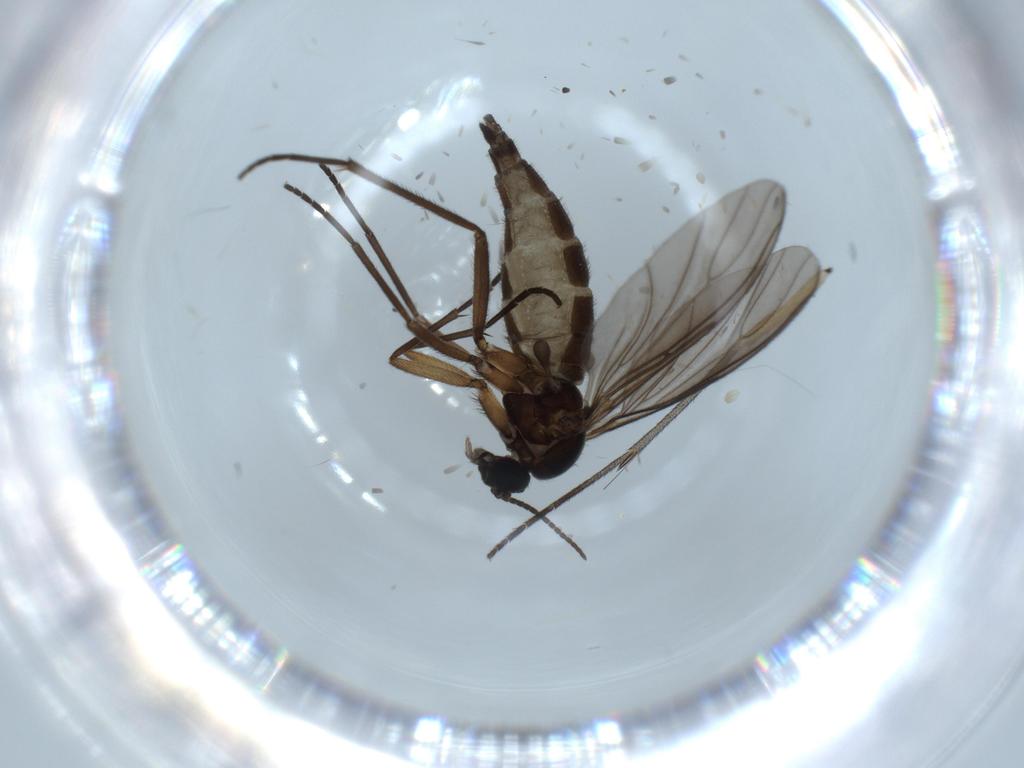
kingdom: Animalia
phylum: Arthropoda
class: Insecta
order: Diptera
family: Sciaridae
